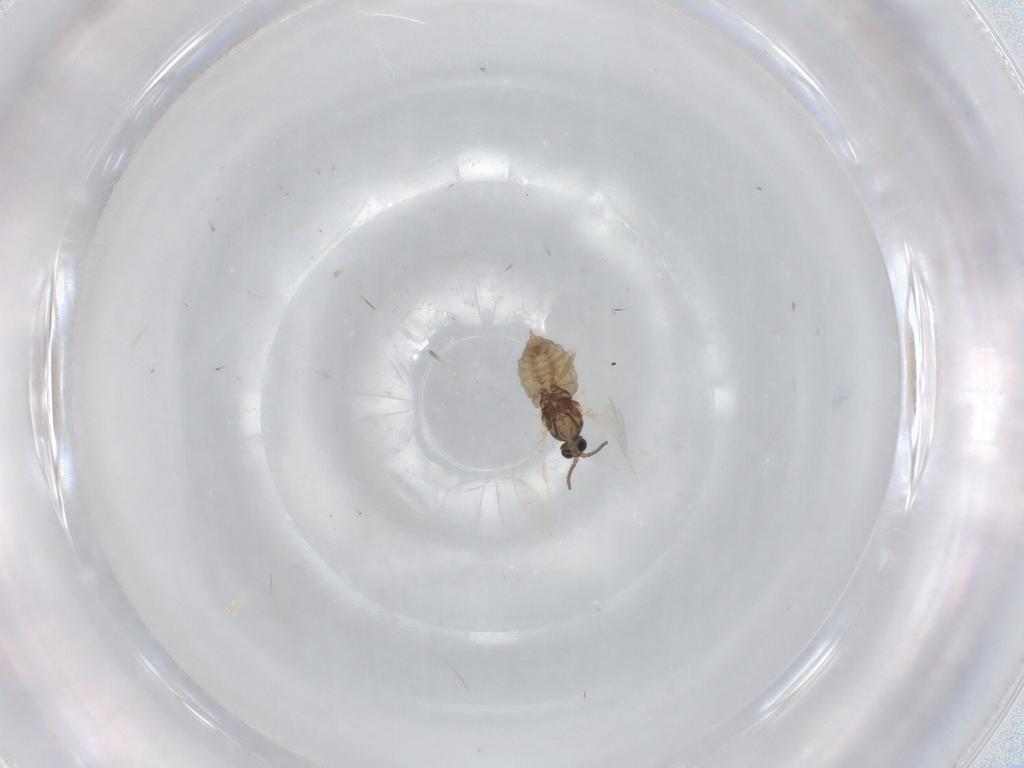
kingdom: Animalia
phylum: Arthropoda
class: Insecta
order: Diptera
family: Cecidomyiidae
